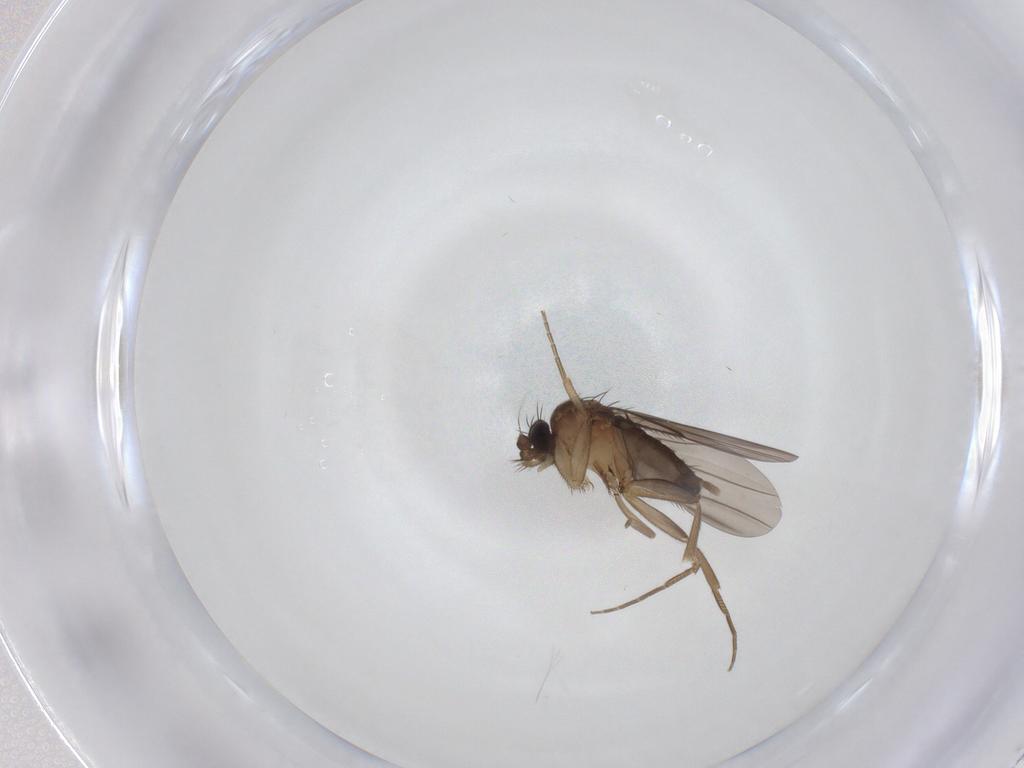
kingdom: Animalia
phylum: Arthropoda
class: Insecta
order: Diptera
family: Phoridae
